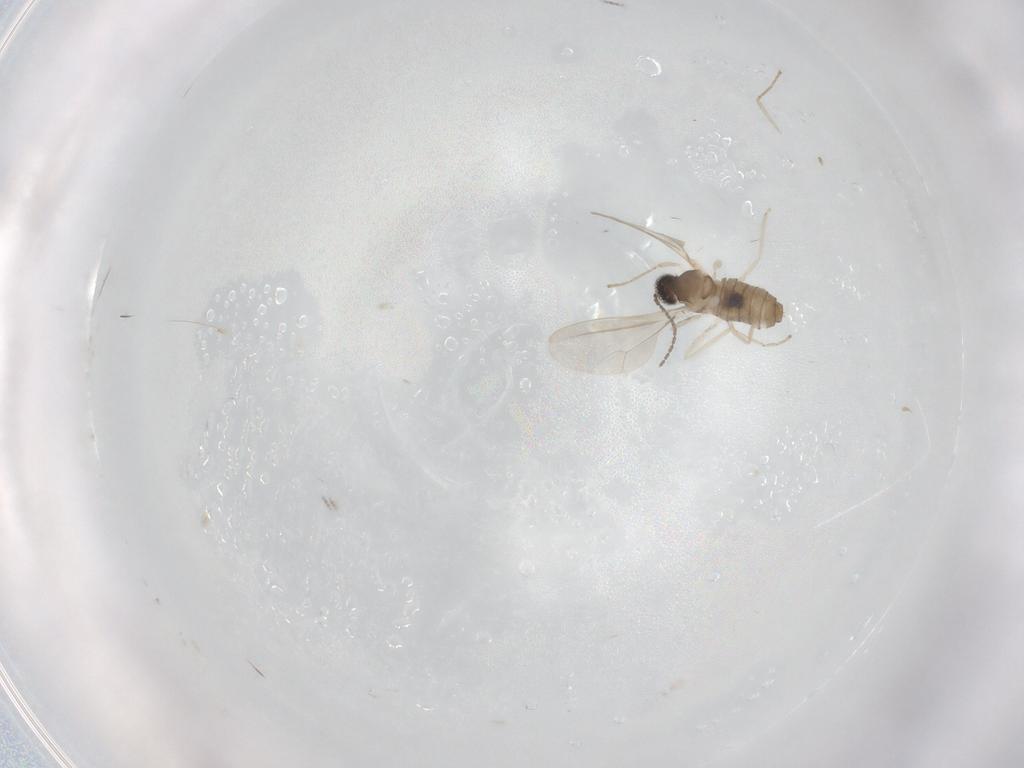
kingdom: Animalia
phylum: Arthropoda
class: Insecta
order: Diptera
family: Cecidomyiidae
